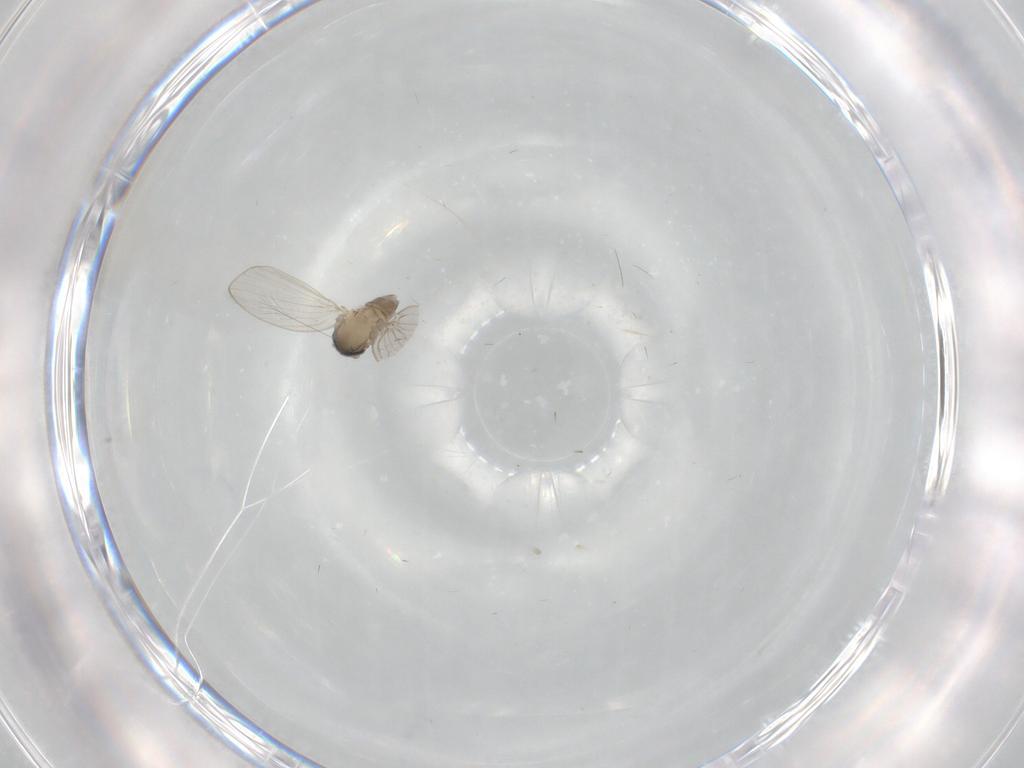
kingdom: Animalia
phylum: Arthropoda
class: Insecta
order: Diptera
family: Psychodidae
